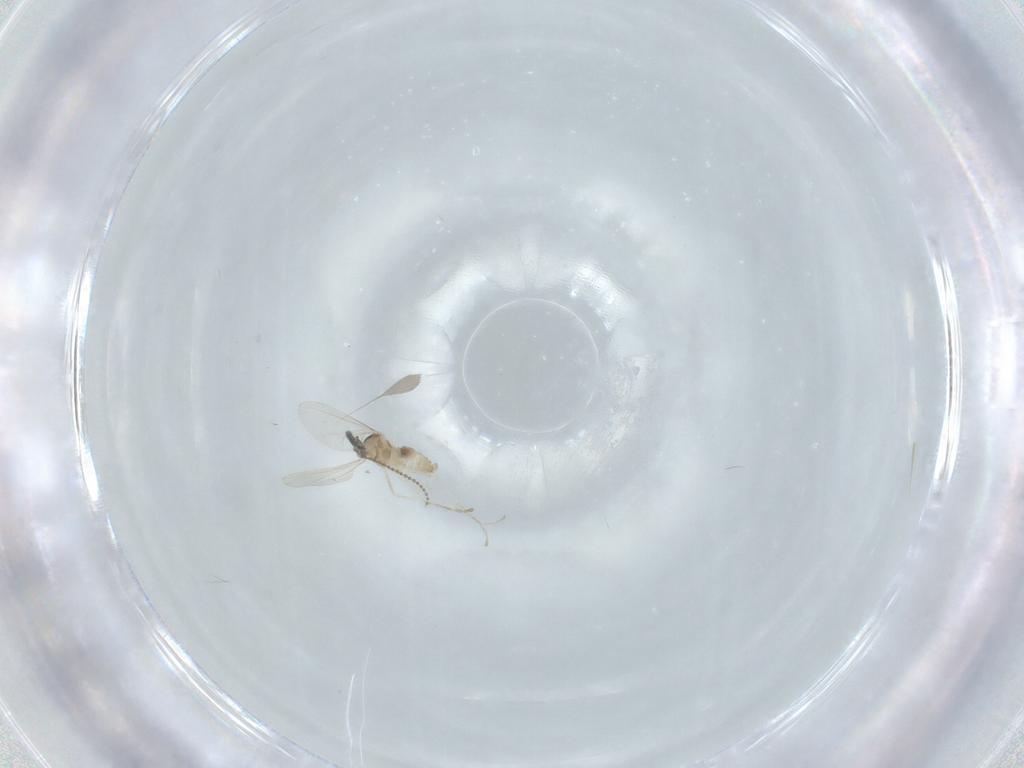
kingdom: Animalia
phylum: Arthropoda
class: Insecta
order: Diptera
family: Cecidomyiidae
